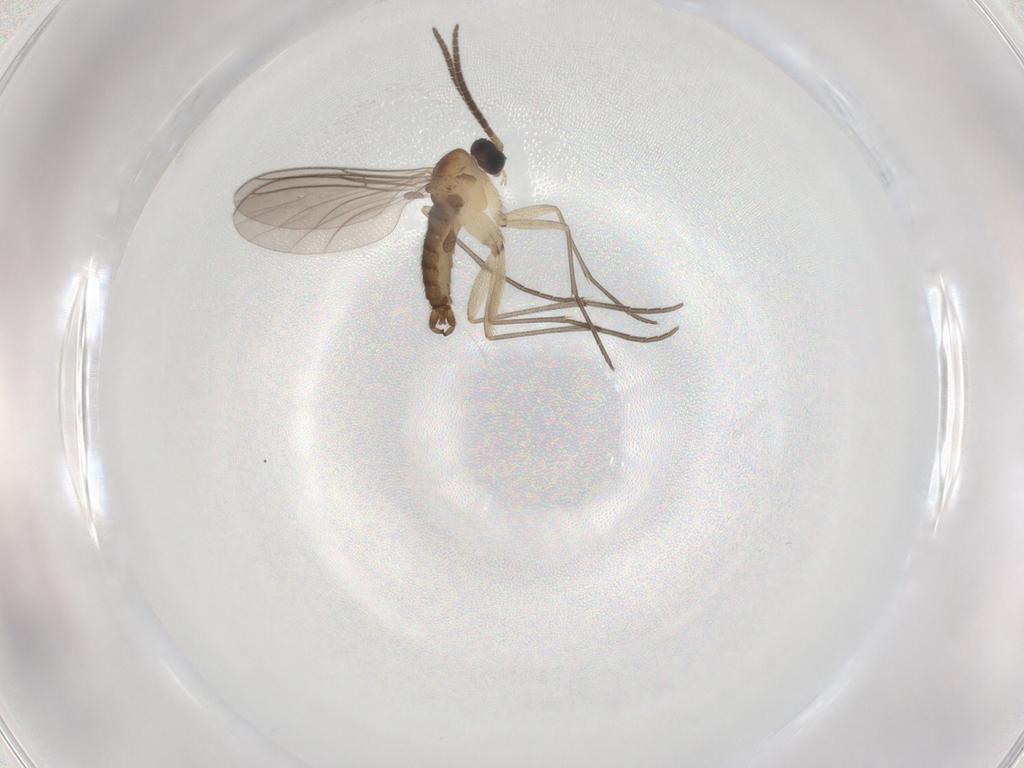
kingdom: Animalia
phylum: Arthropoda
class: Insecta
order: Diptera
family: Sciaridae
